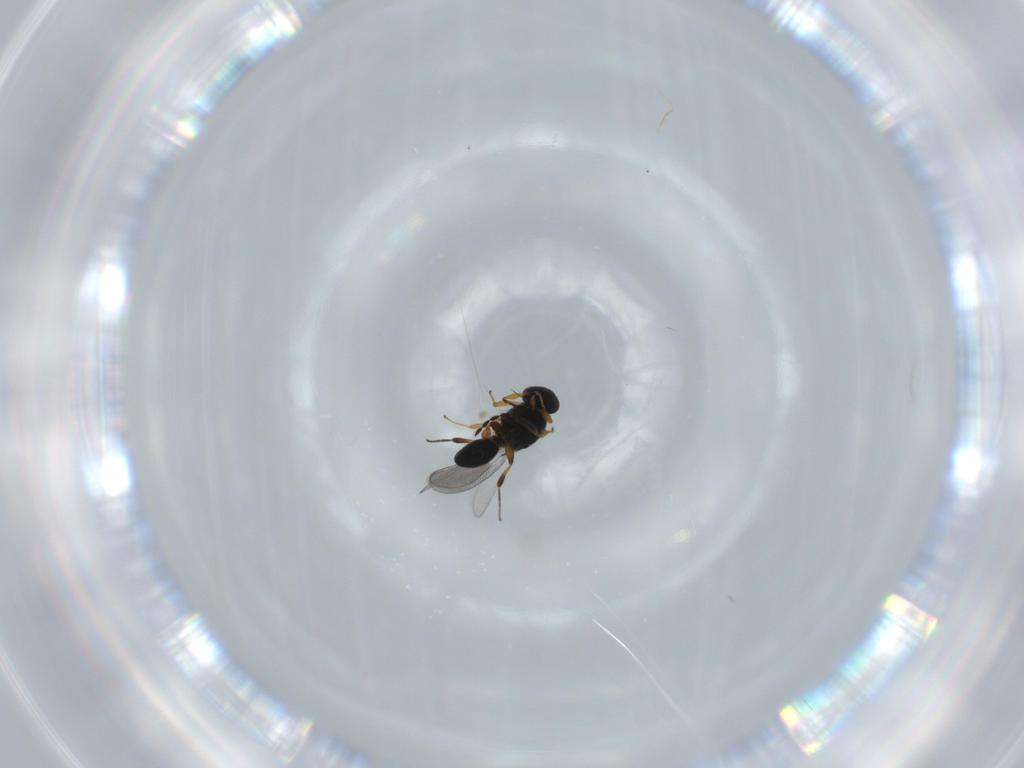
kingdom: Animalia
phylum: Arthropoda
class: Insecta
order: Hymenoptera
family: Platygastridae
